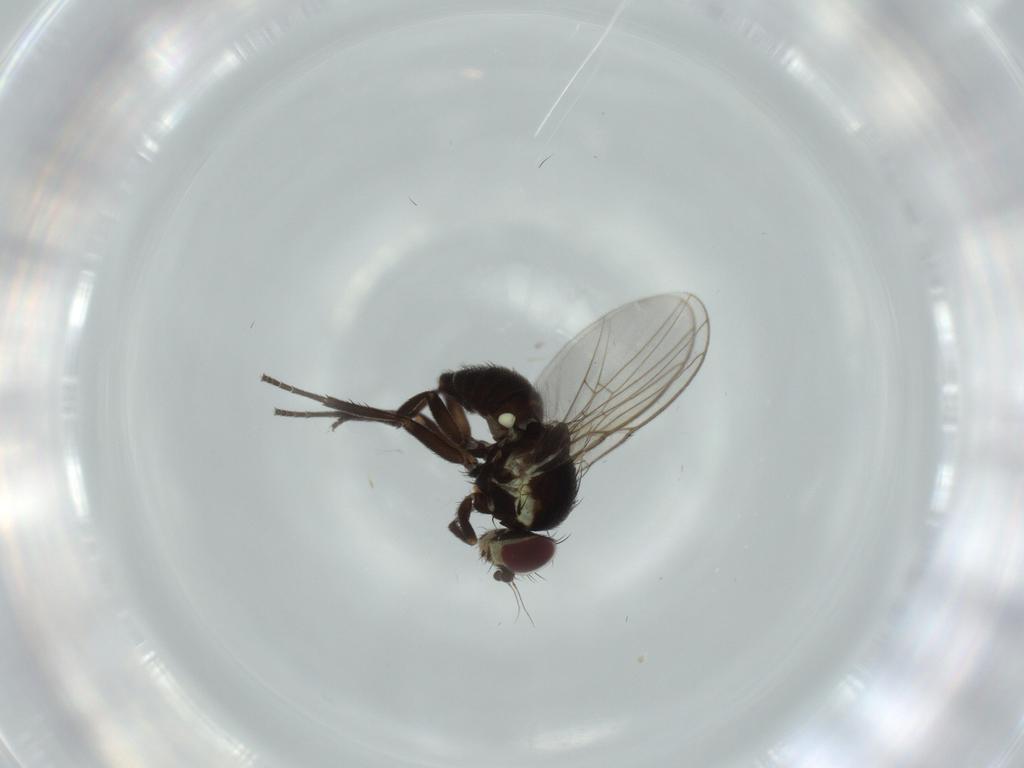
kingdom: Animalia
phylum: Arthropoda
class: Insecta
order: Diptera
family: Agromyzidae
